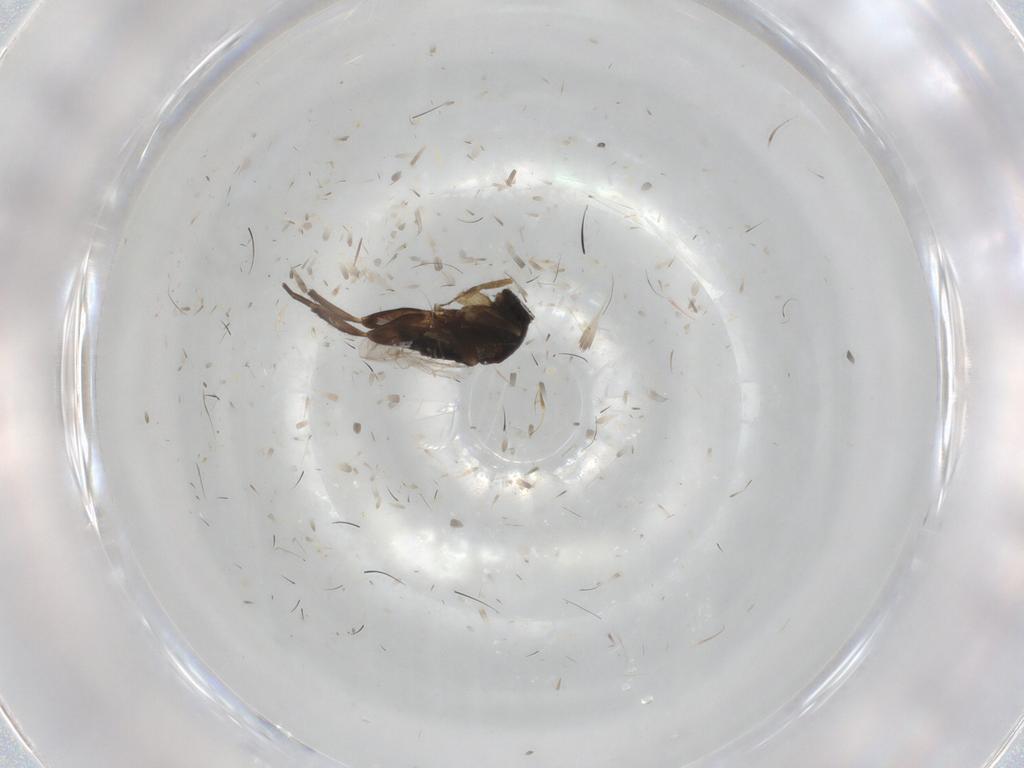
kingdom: Animalia
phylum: Arthropoda
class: Insecta
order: Diptera
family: Phoridae
